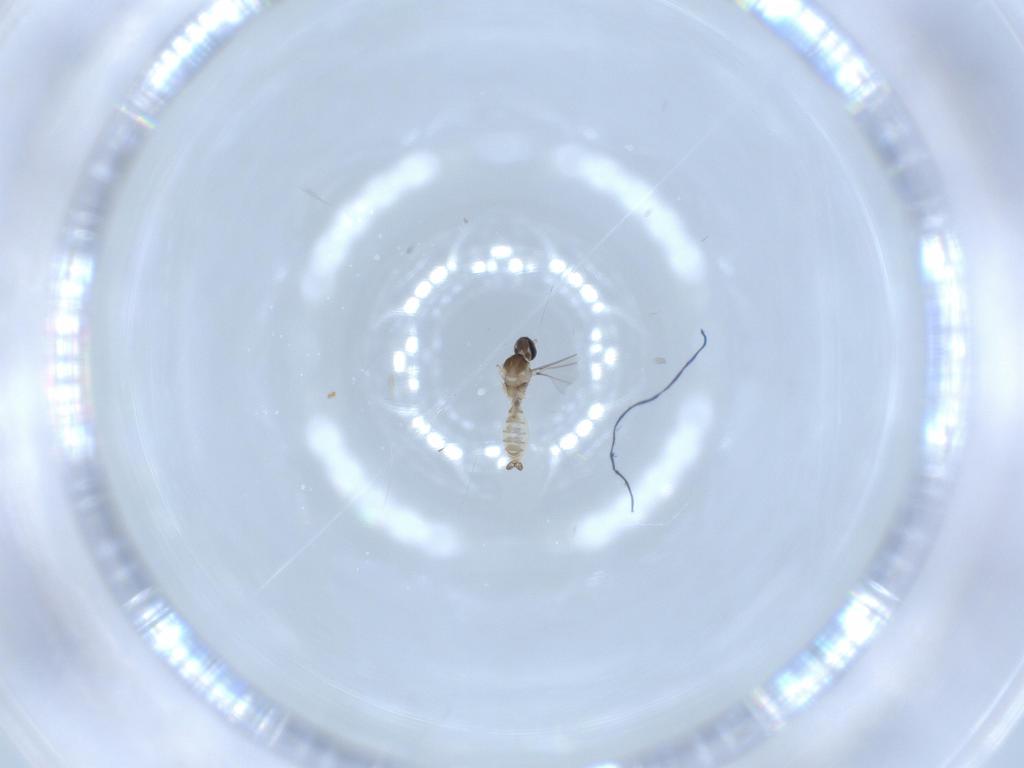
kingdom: Animalia
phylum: Arthropoda
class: Insecta
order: Diptera
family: Cecidomyiidae
